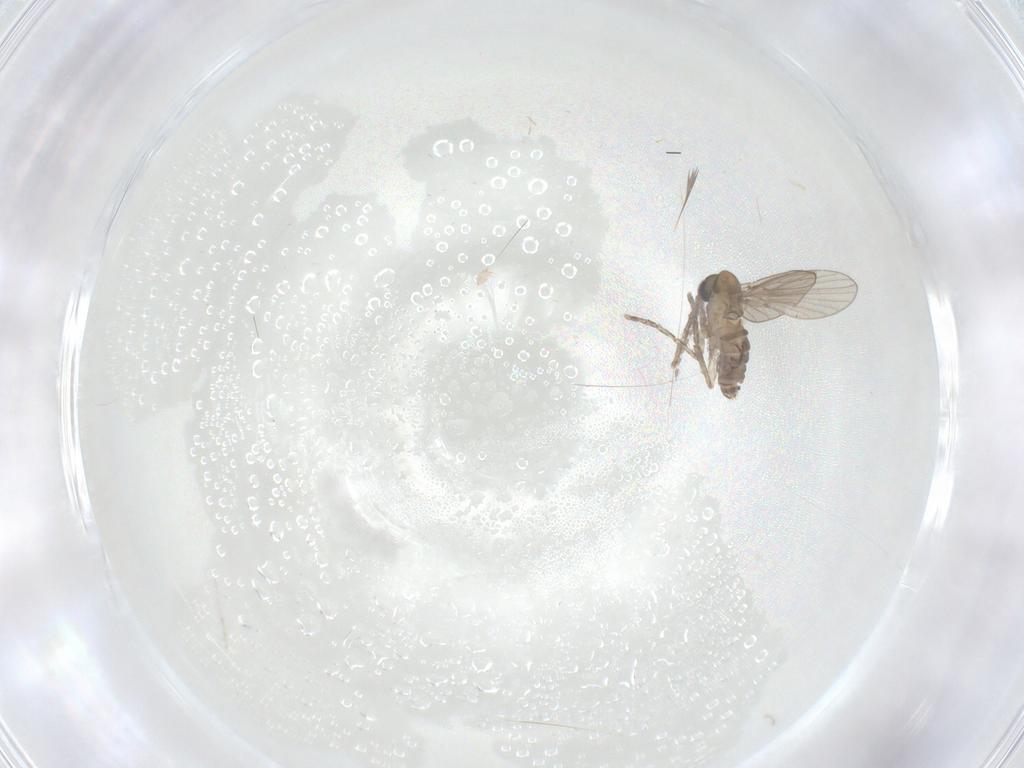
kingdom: Animalia
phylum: Arthropoda
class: Insecta
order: Diptera
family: Psychodidae
